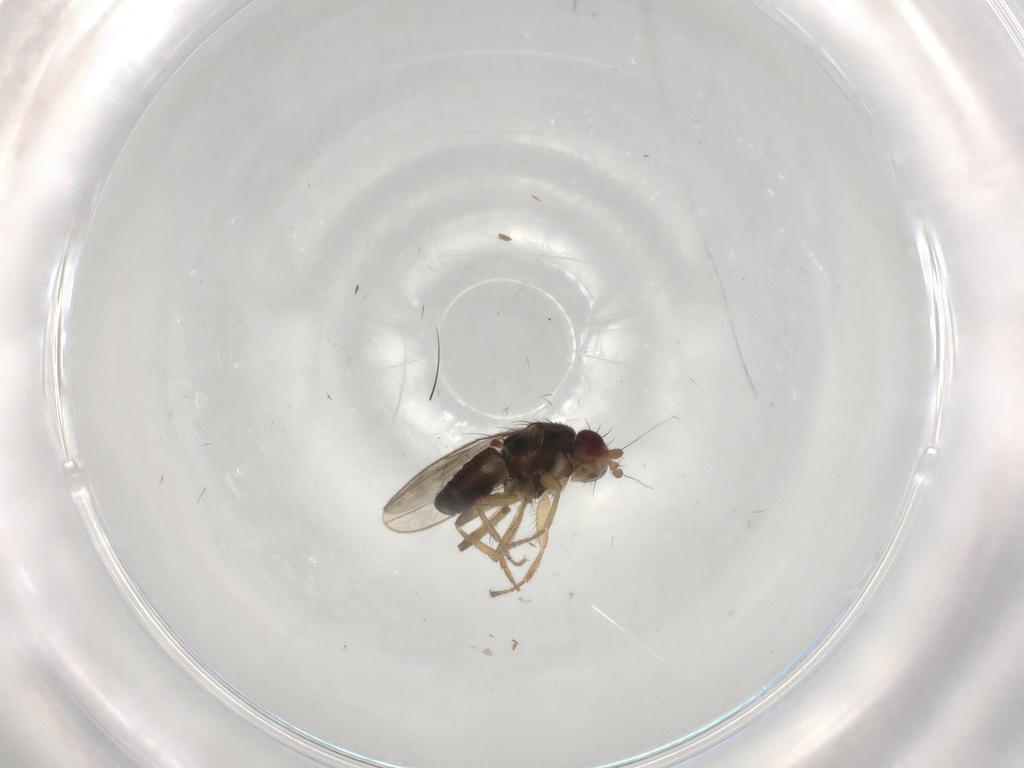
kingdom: Animalia
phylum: Arthropoda
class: Insecta
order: Diptera
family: Sphaeroceridae
